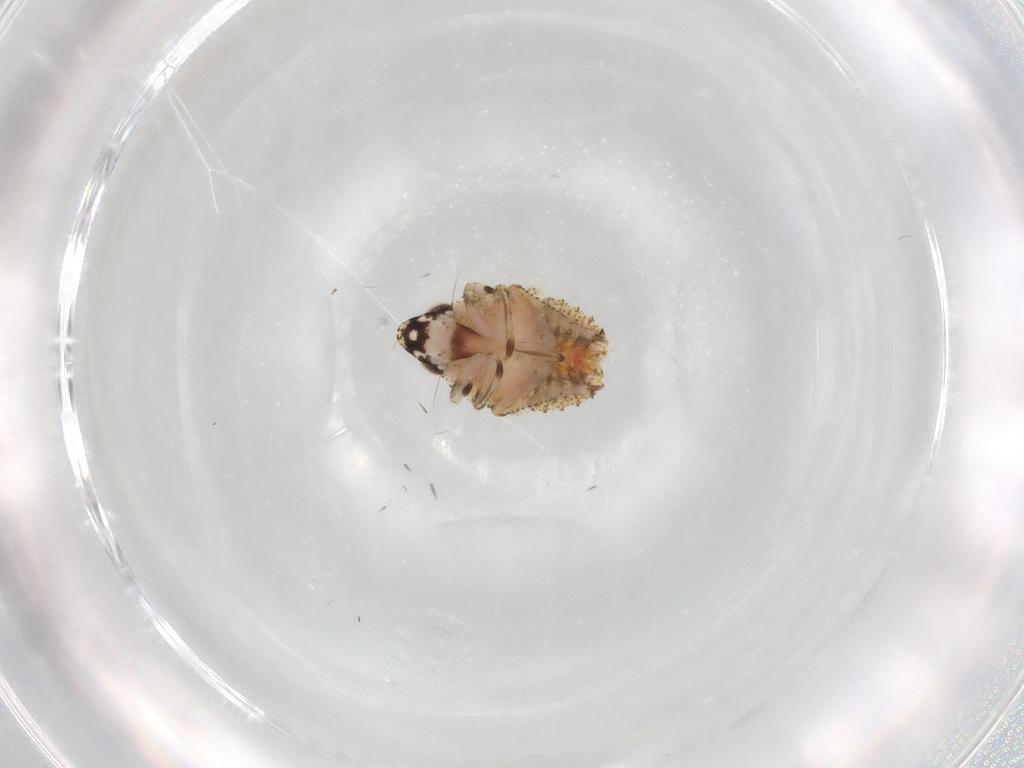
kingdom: Animalia
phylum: Arthropoda
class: Insecta
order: Hemiptera
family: Gengidae
